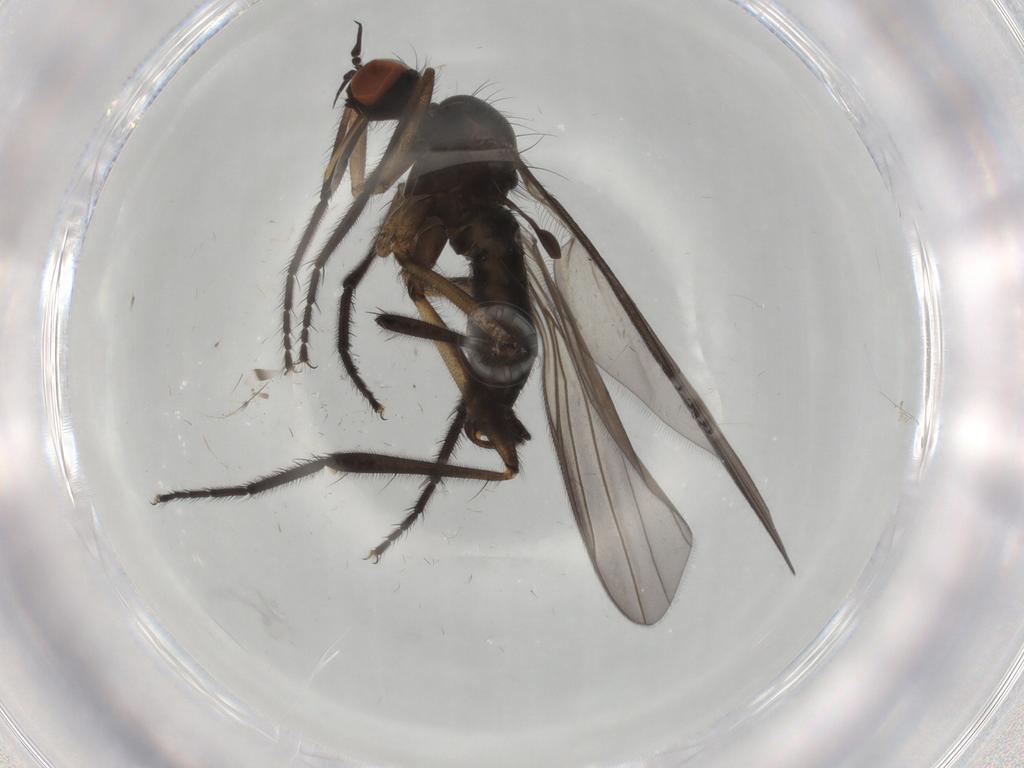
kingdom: Animalia
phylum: Arthropoda
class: Insecta
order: Diptera
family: Empididae
